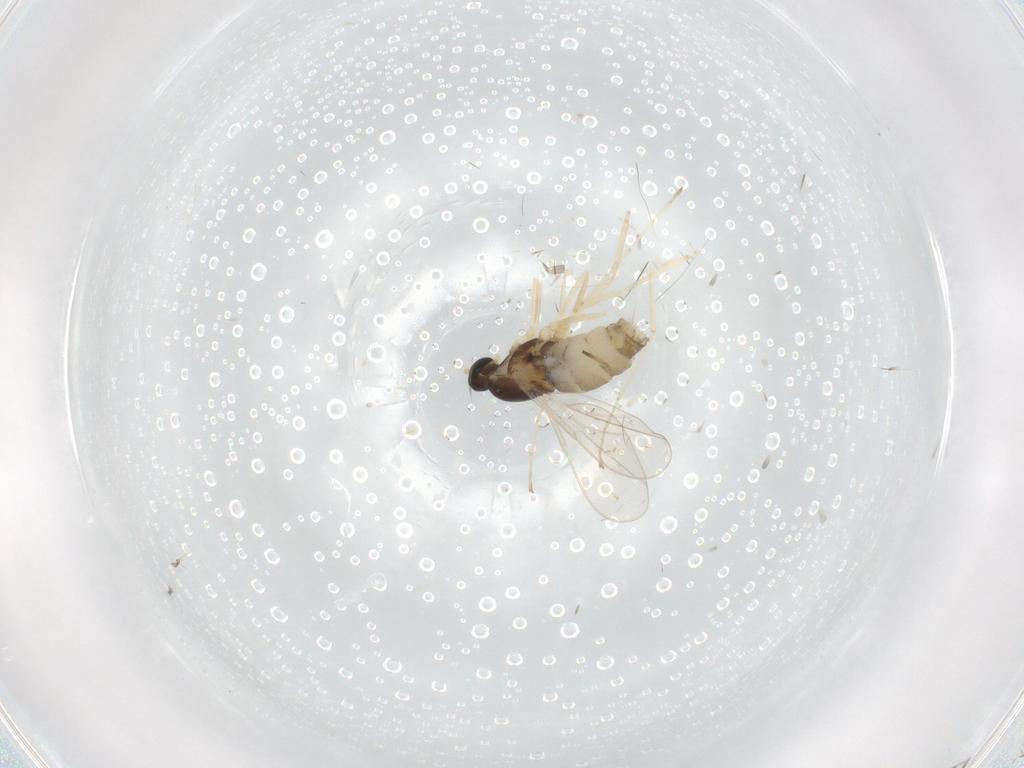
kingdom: Animalia
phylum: Arthropoda
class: Insecta
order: Diptera
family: Cecidomyiidae
